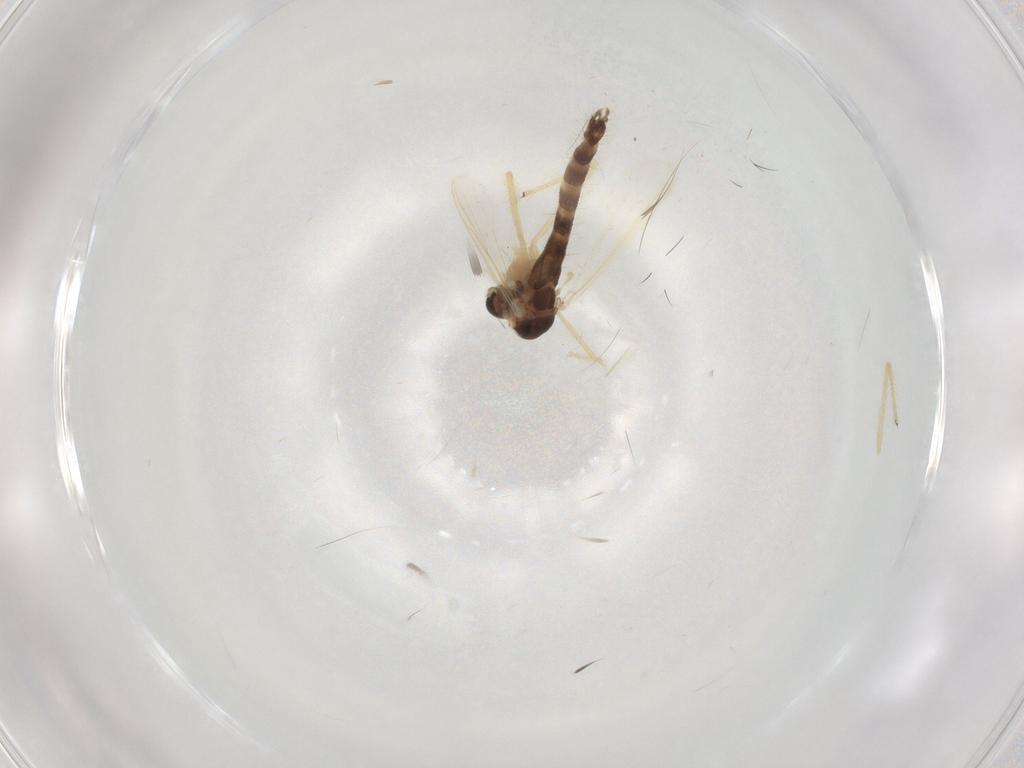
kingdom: Animalia
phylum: Arthropoda
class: Insecta
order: Diptera
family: Chironomidae
